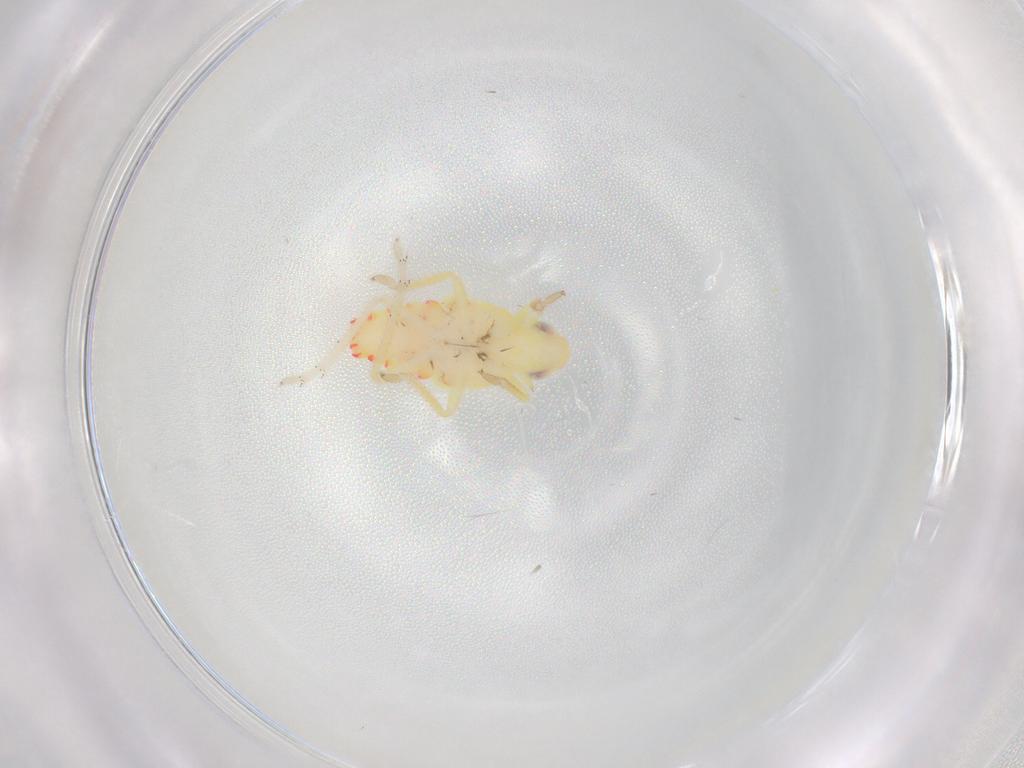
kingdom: Animalia
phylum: Arthropoda
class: Insecta
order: Hemiptera
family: Tropiduchidae
